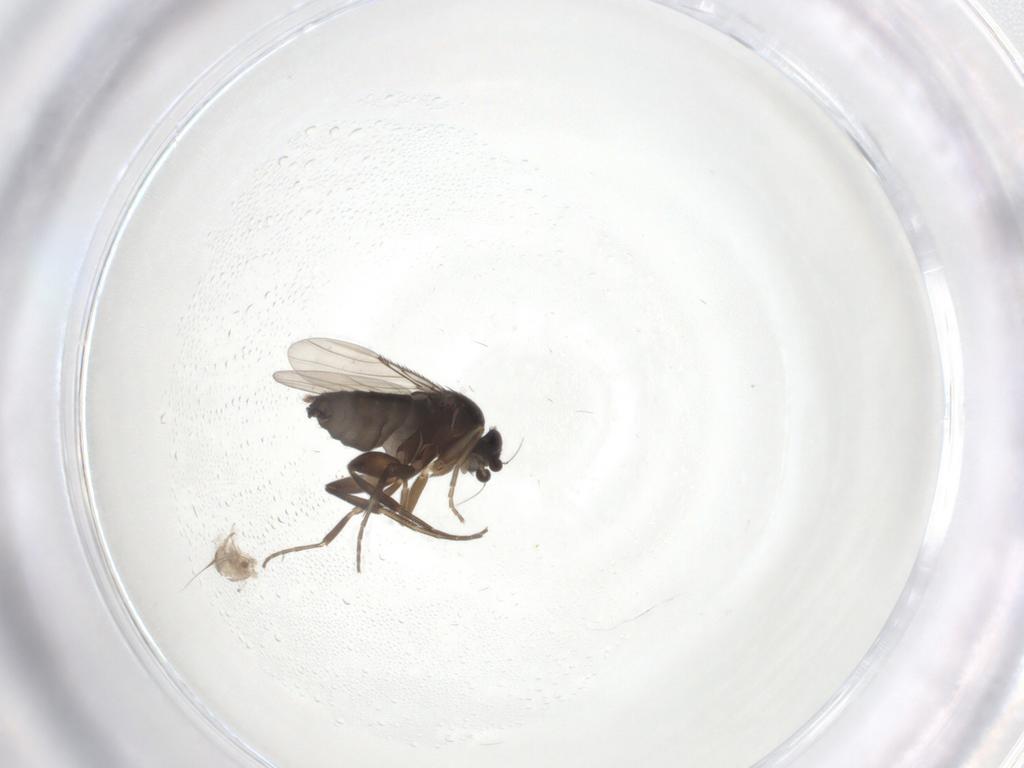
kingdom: Animalia
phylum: Arthropoda
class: Insecta
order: Diptera
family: Phoridae
